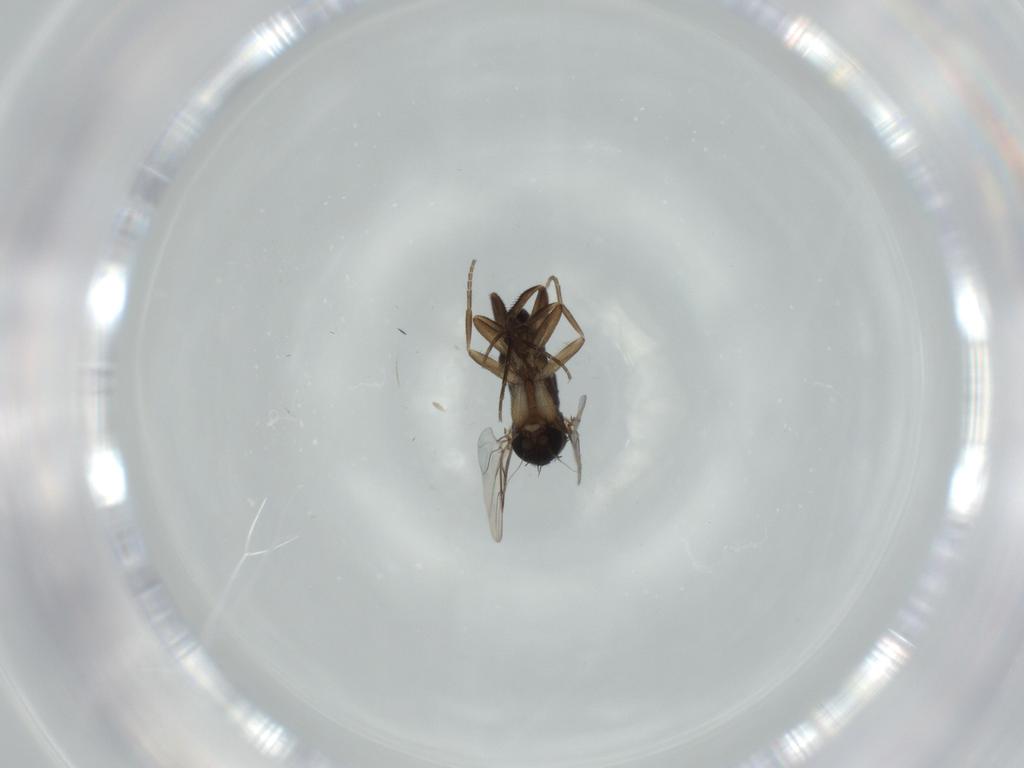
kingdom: Animalia
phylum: Arthropoda
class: Insecta
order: Diptera
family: Phoridae
